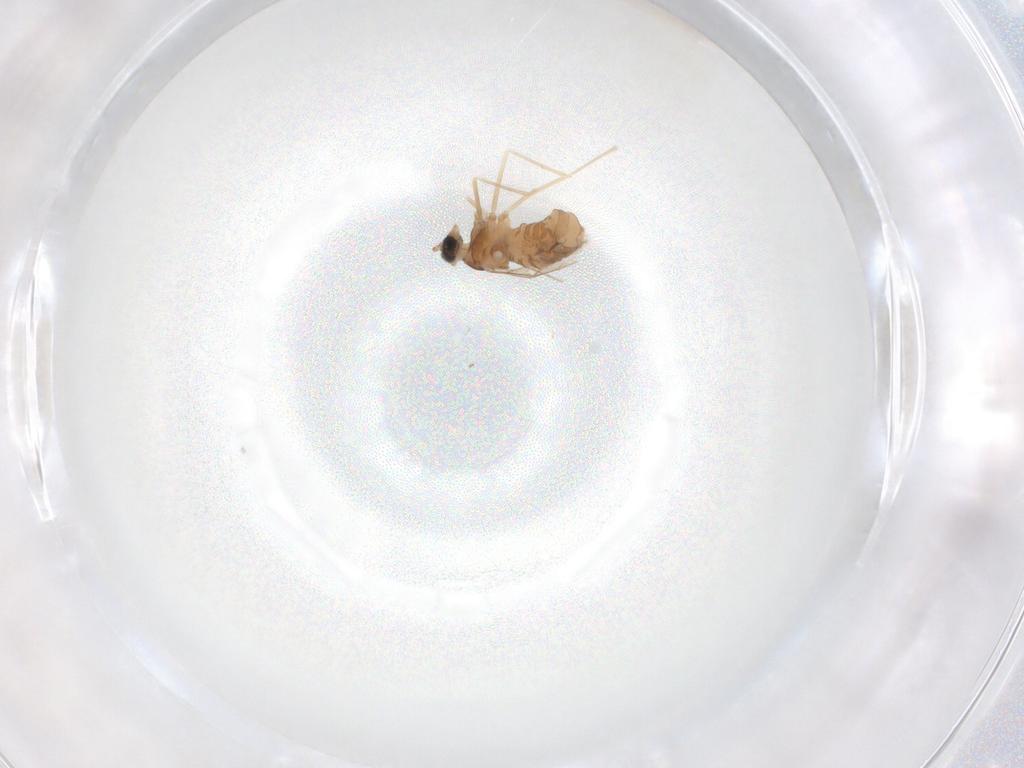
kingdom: Animalia
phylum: Arthropoda
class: Insecta
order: Diptera
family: Cecidomyiidae
